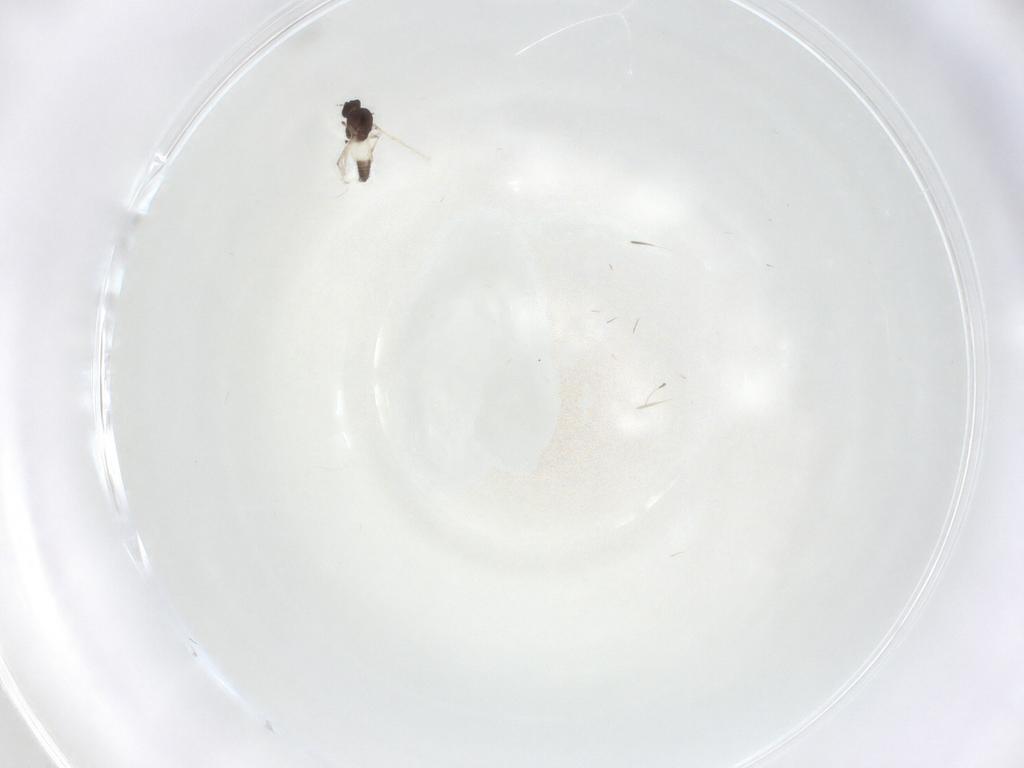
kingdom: Animalia
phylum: Arthropoda
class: Insecta
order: Diptera
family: Ceratopogonidae
